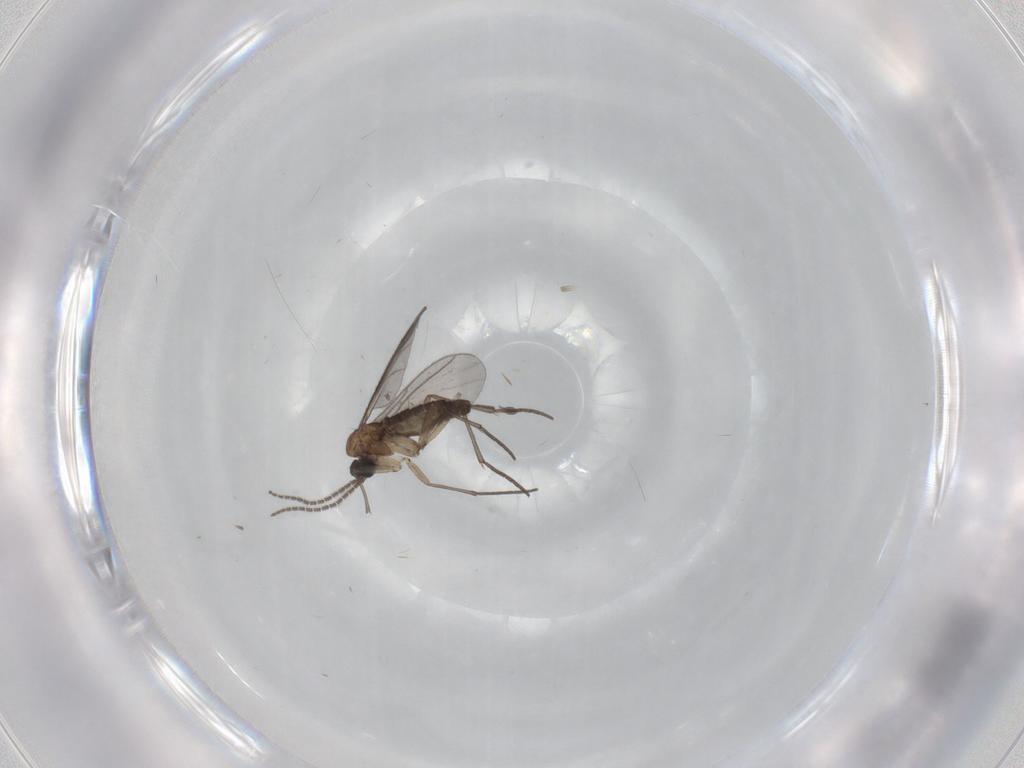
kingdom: Animalia
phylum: Arthropoda
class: Insecta
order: Diptera
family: Sciaridae
